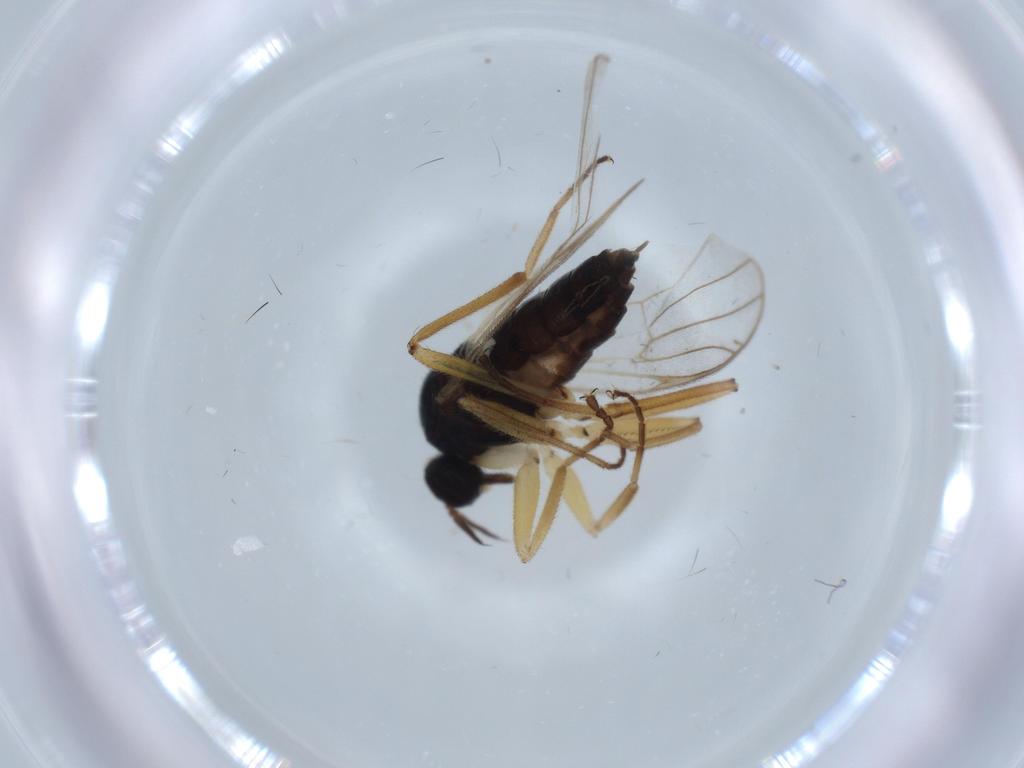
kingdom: Animalia
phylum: Arthropoda
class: Insecta
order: Diptera
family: Hybotidae
